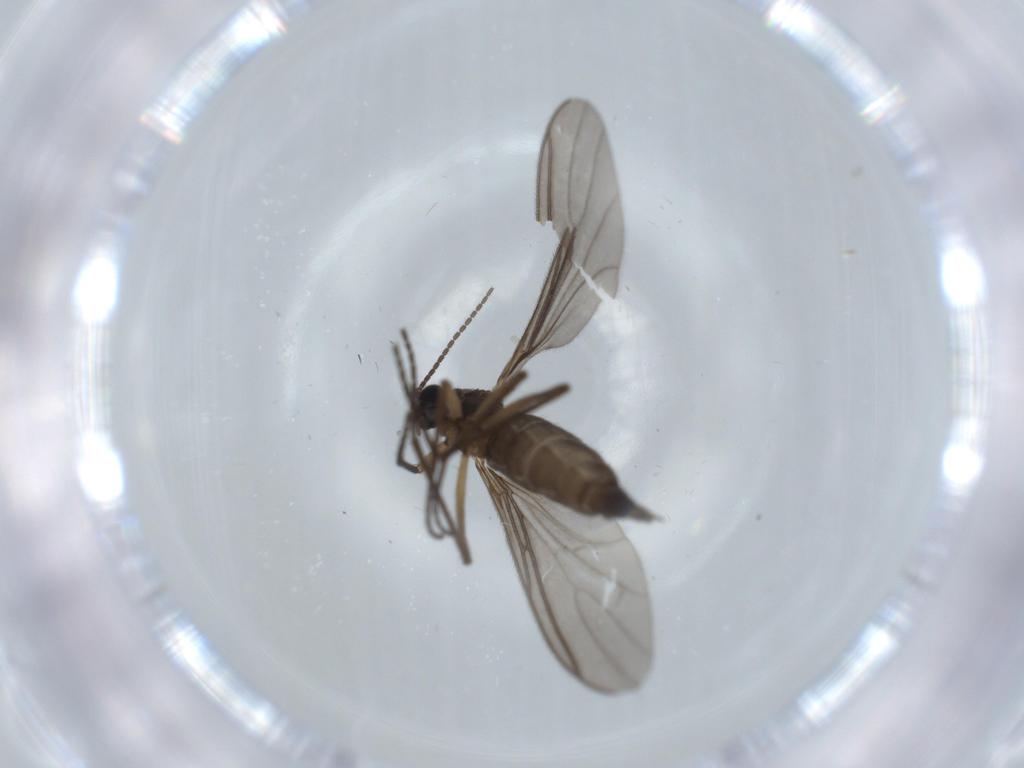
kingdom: Animalia
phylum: Arthropoda
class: Insecta
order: Diptera
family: Sciaridae
